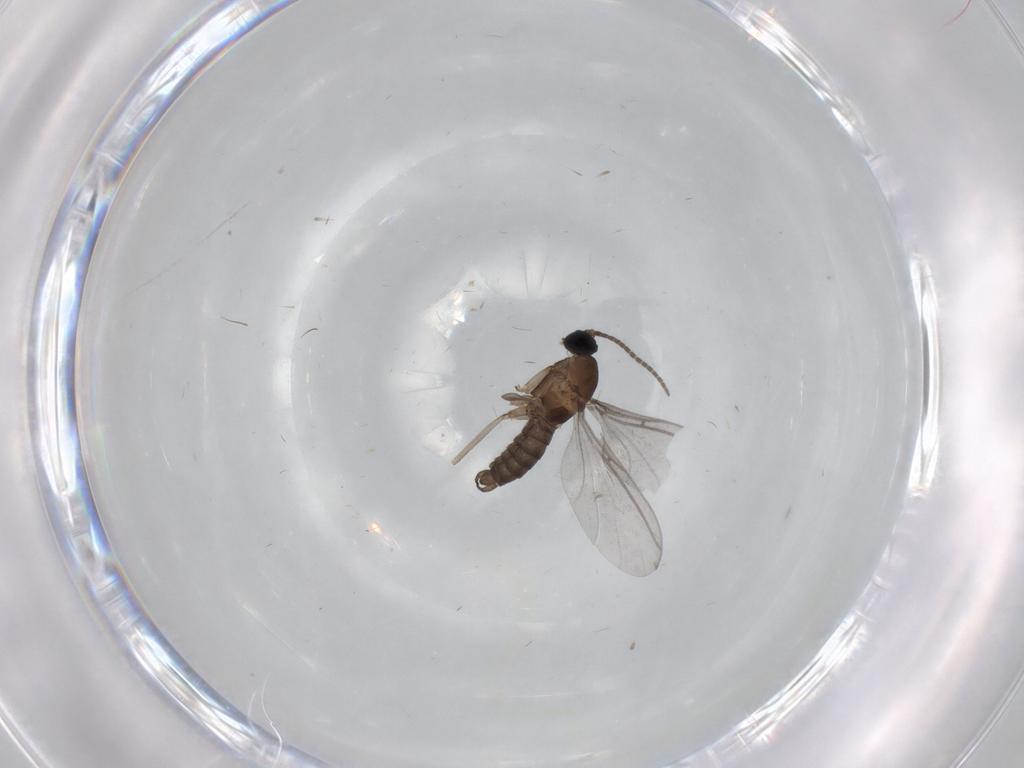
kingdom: Animalia
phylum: Arthropoda
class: Insecta
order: Diptera
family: Sciaridae
